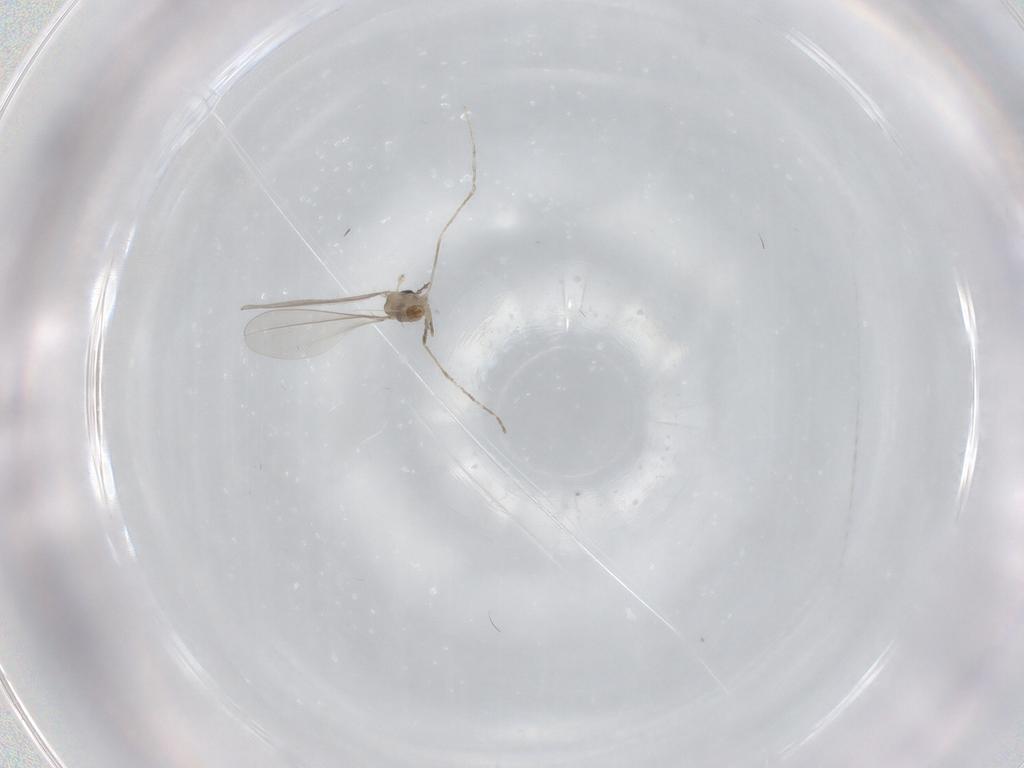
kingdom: Animalia
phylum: Arthropoda
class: Insecta
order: Diptera
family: Cecidomyiidae
